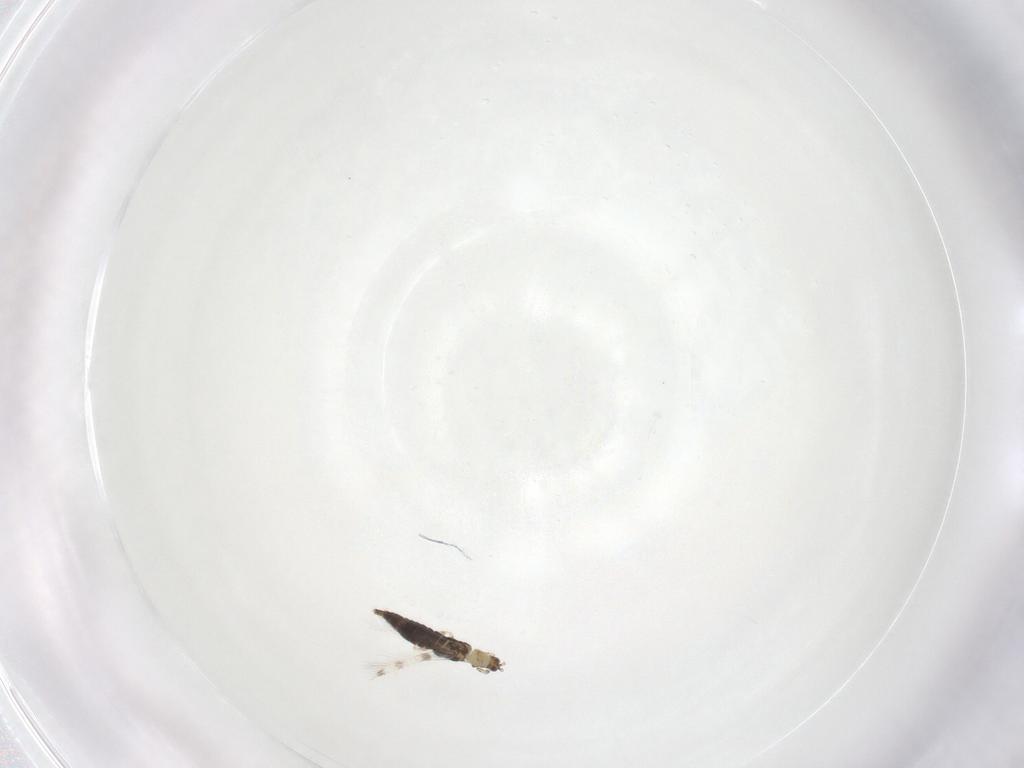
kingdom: Animalia
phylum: Arthropoda
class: Insecta
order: Thysanoptera
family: Thripidae
